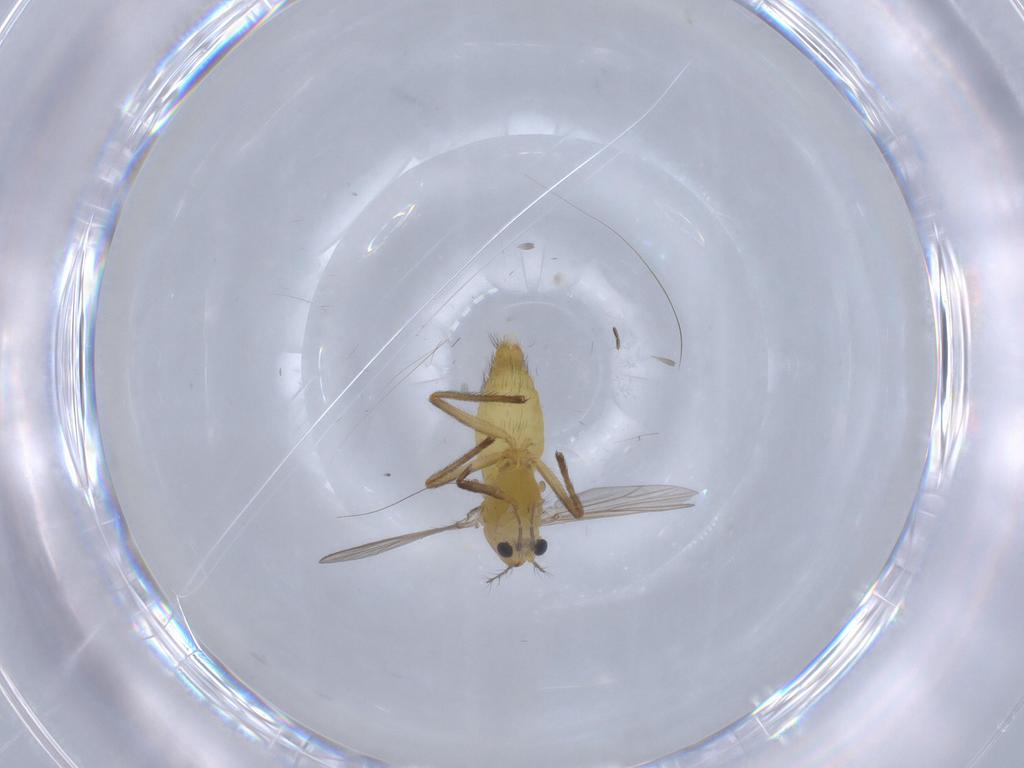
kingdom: Animalia
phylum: Arthropoda
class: Insecta
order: Diptera
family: Chironomidae
